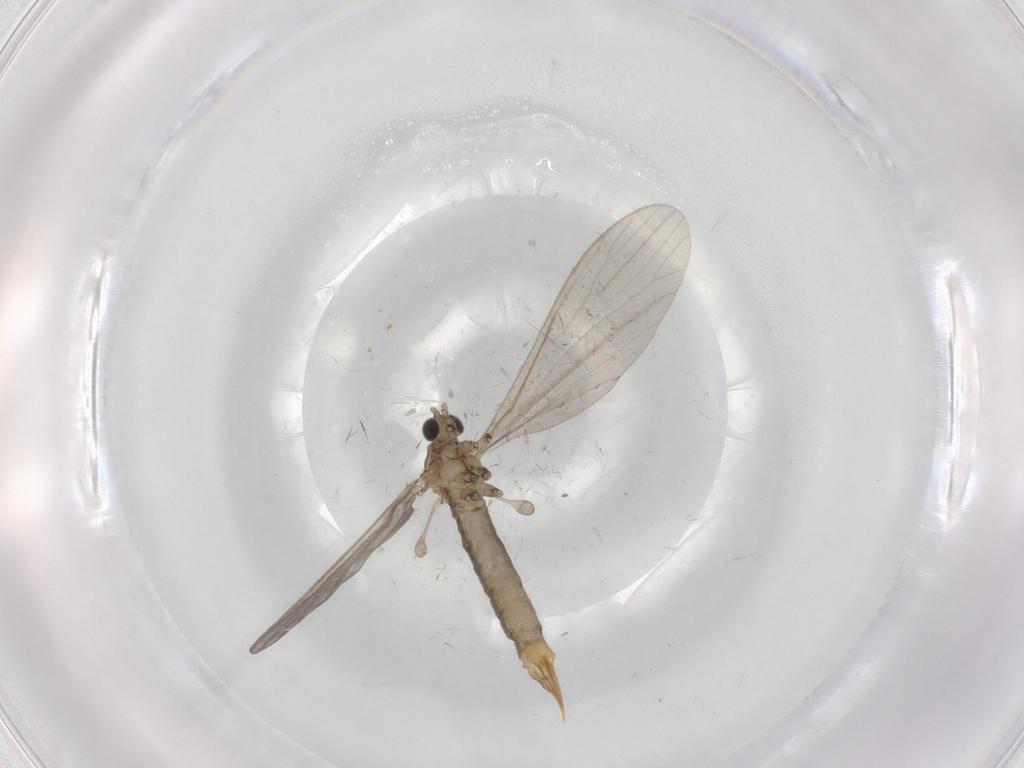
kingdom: Animalia
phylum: Arthropoda
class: Insecta
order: Diptera
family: Limoniidae
